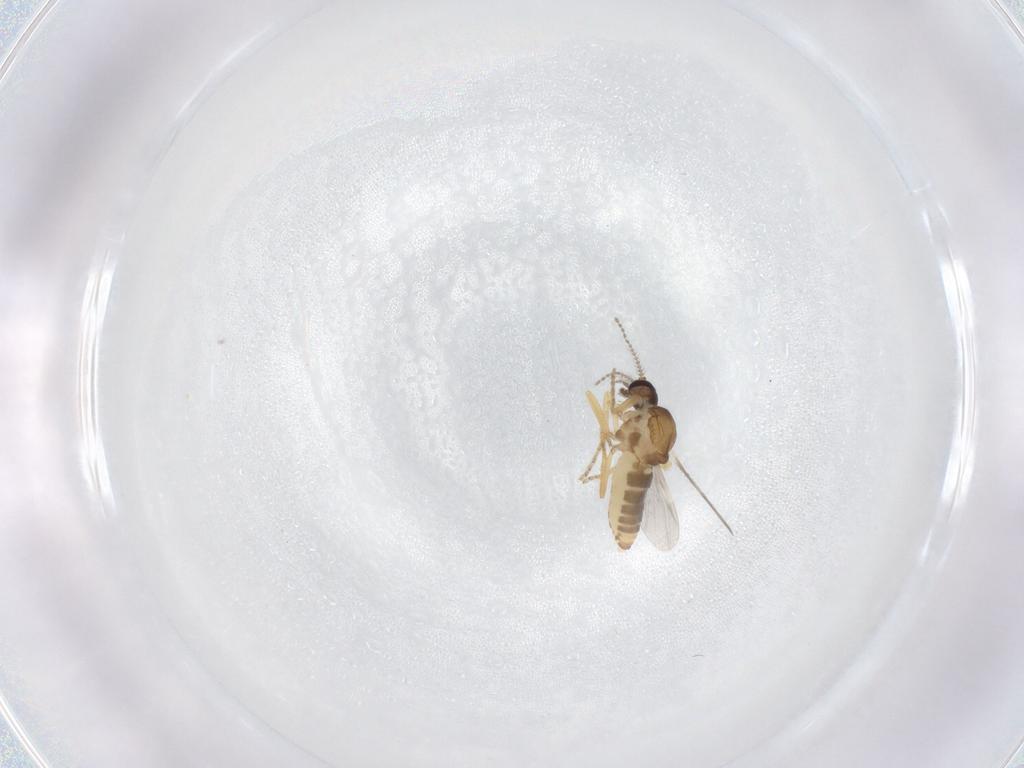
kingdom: Animalia
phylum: Arthropoda
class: Insecta
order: Diptera
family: Ceratopogonidae
